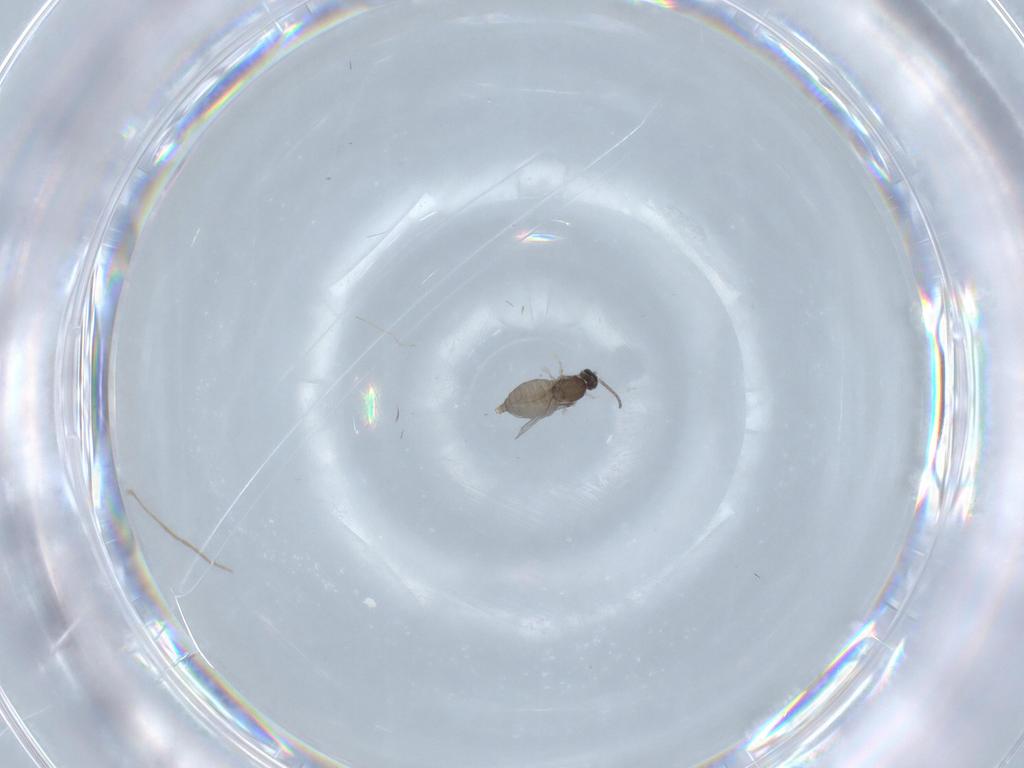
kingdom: Animalia
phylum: Arthropoda
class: Insecta
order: Diptera
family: Cecidomyiidae
